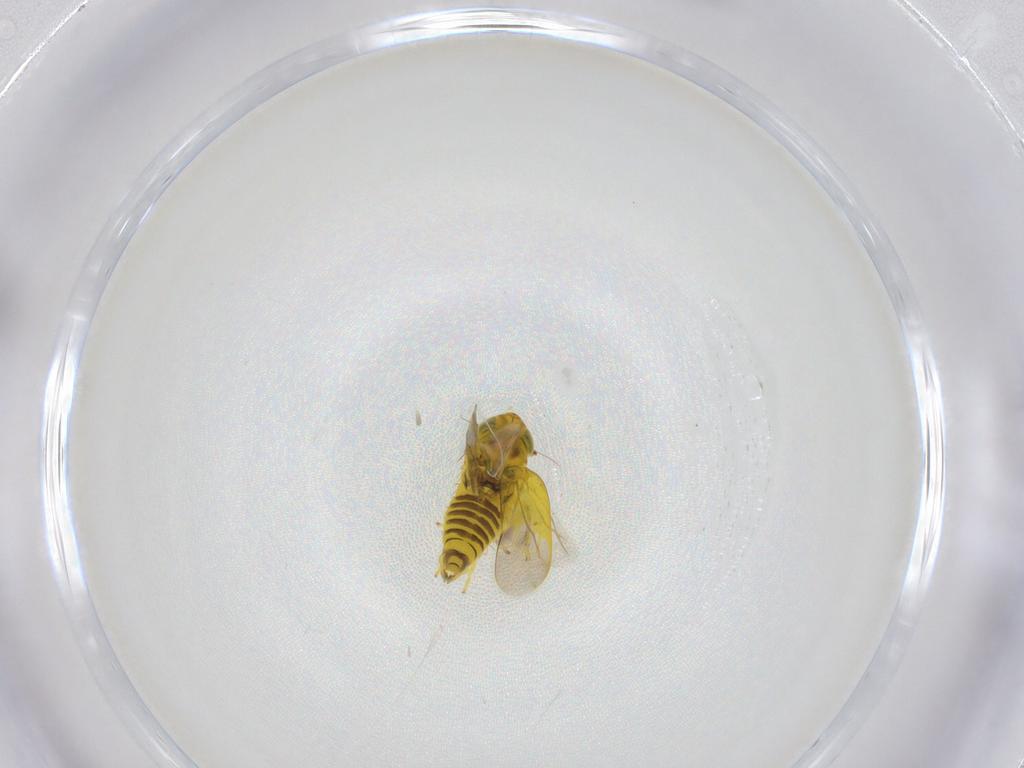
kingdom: Animalia
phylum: Arthropoda
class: Insecta
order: Hemiptera
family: Cicadellidae
